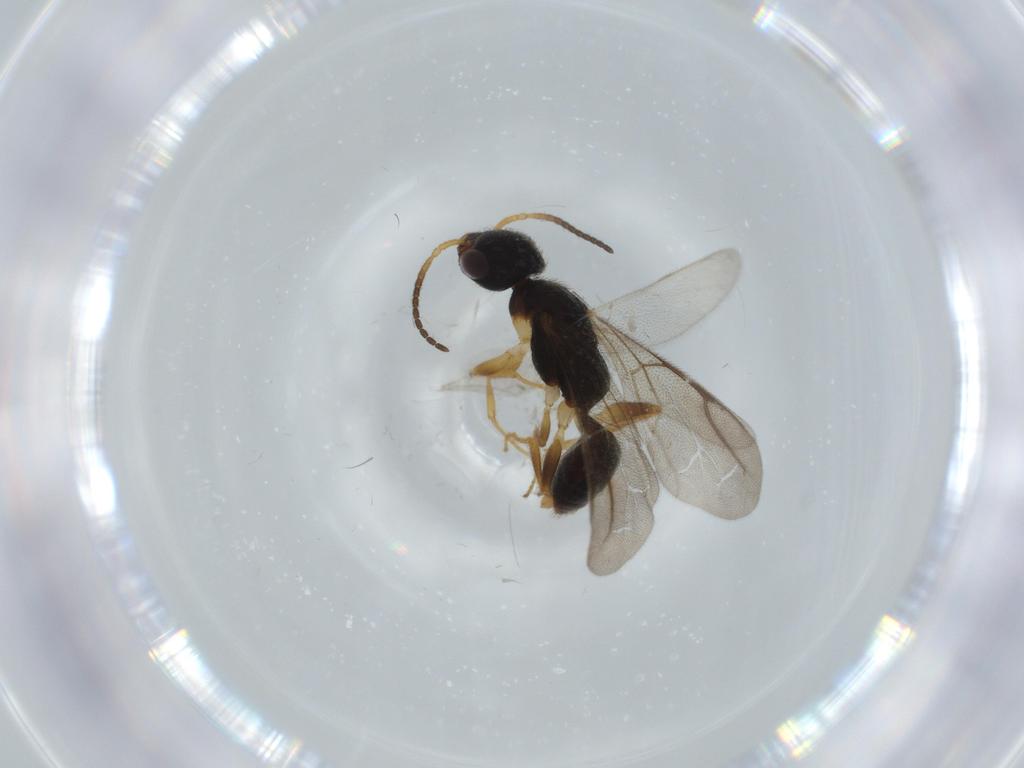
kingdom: Animalia
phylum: Arthropoda
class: Insecta
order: Hymenoptera
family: Bethylidae
